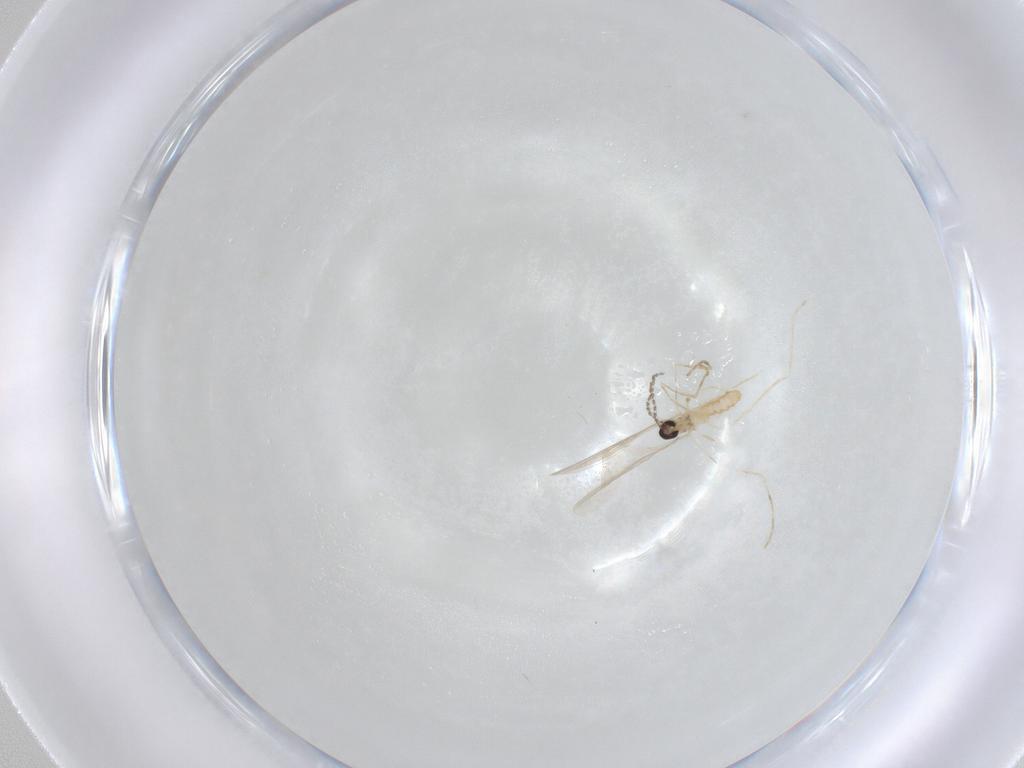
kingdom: Animalia
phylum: Arthropoda
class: Insecta
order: Diptera
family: Cecidomyiidae
